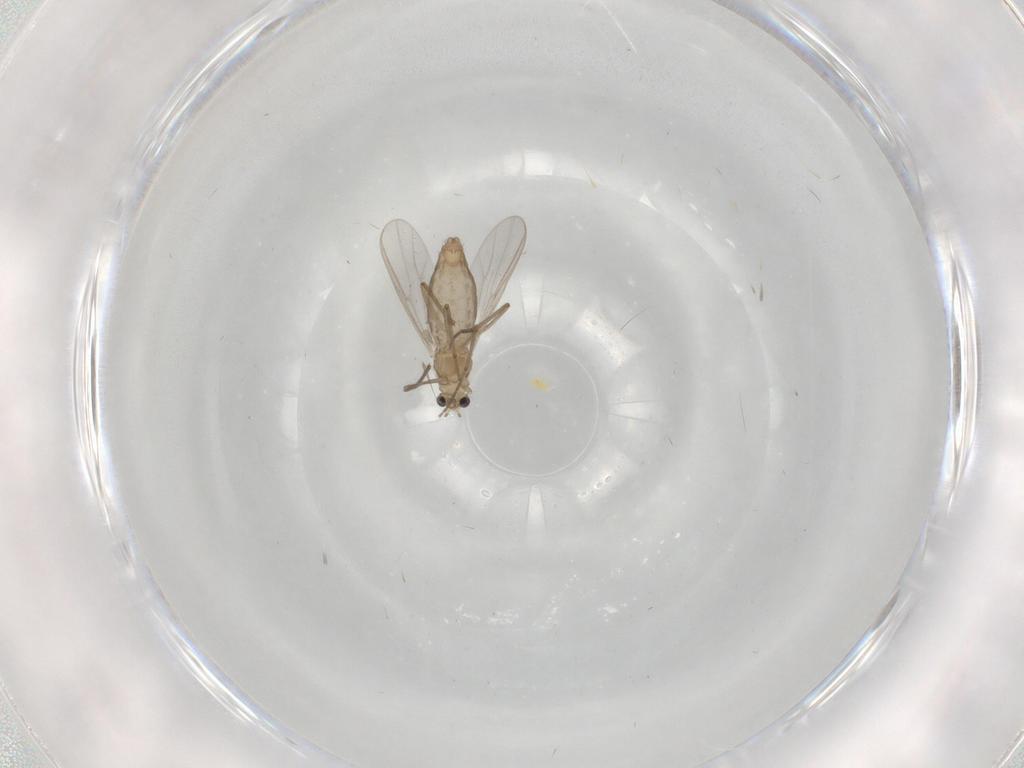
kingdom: Animalia
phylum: Arthropoda
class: Insecta
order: Diptera
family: Chironomidae
